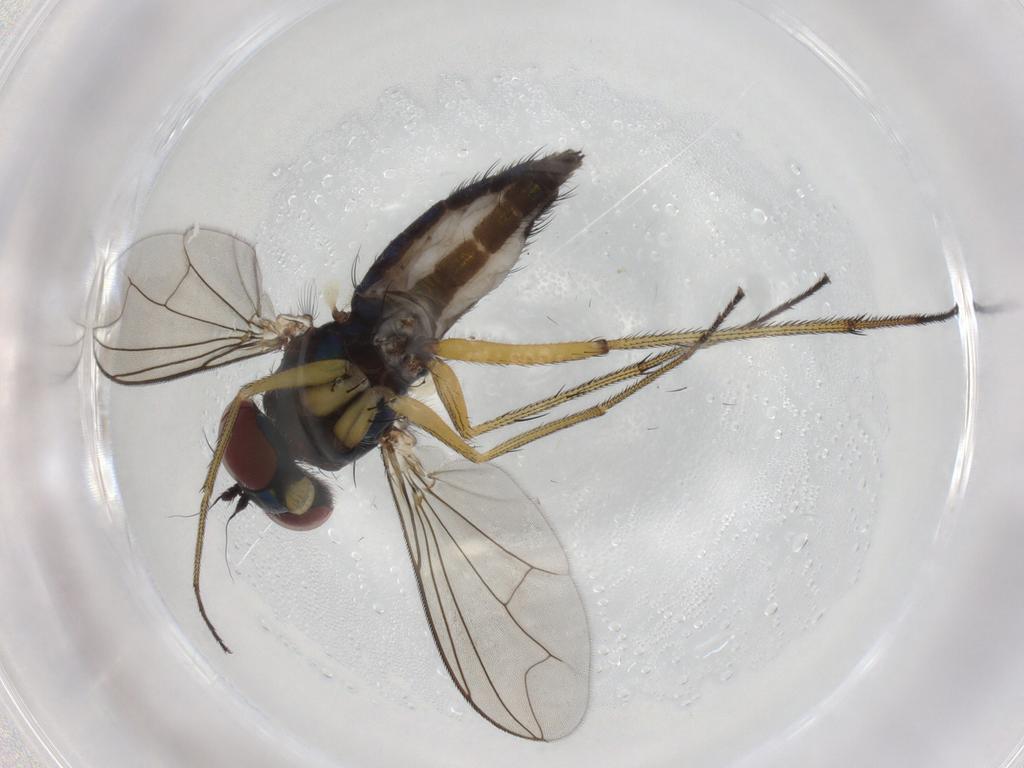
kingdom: Animalia
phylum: Arthropoda
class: Insecta
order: Diptera
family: Dolichopodidae
